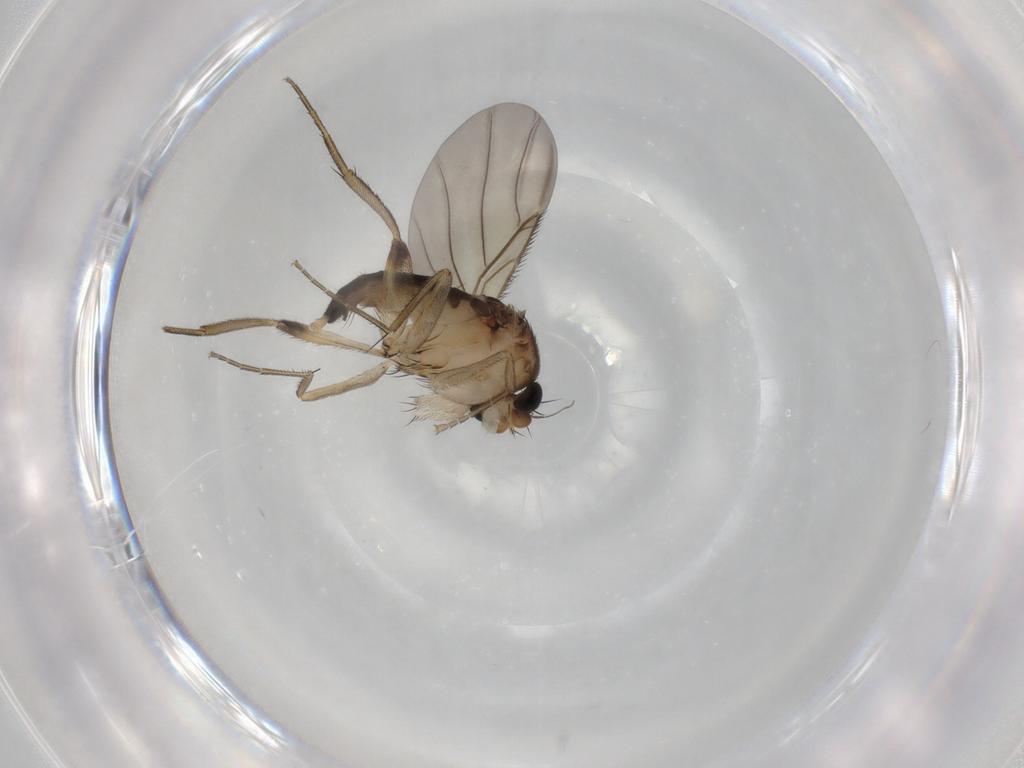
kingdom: Animalia
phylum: Arthropoda
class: Insecta
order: Diptera
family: Phoridae
